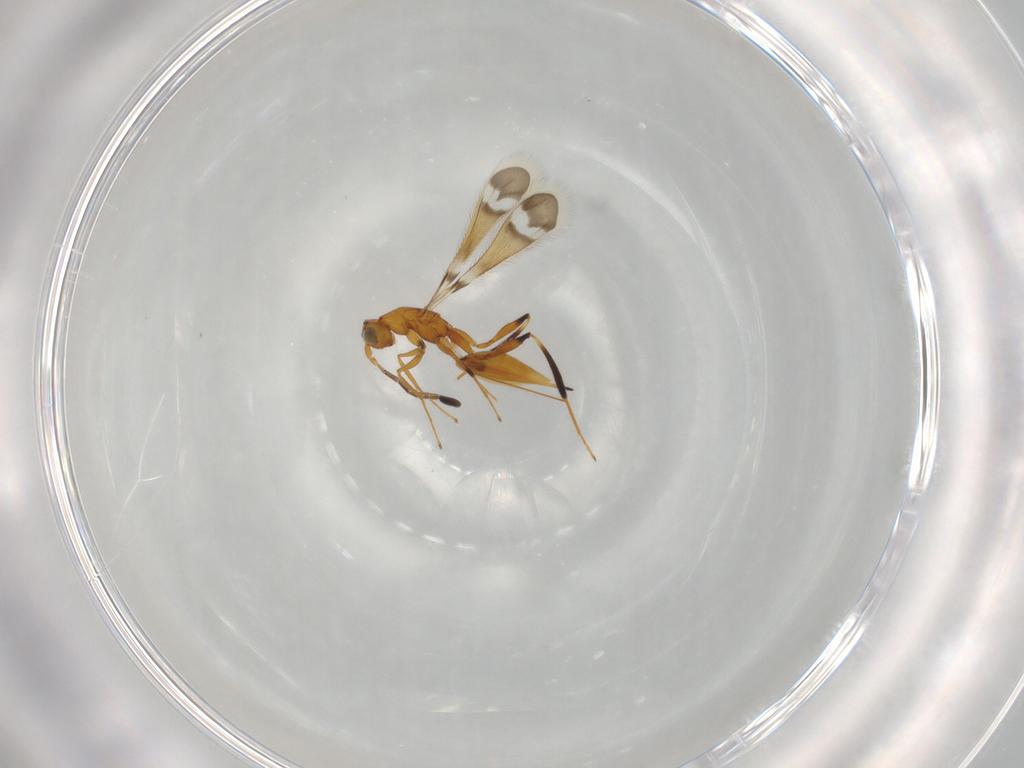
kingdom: Animalia
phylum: Arthropoda
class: Insecta
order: Hymenoptera
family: Mymaridae
